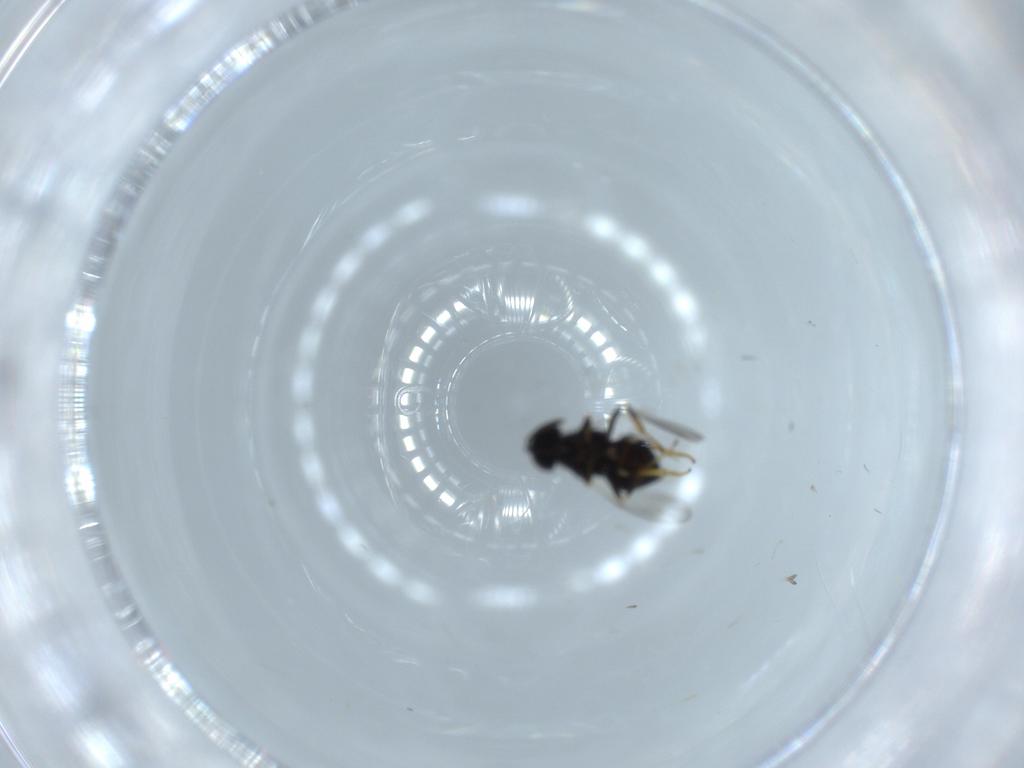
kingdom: Animalia
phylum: Arthropoda
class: Insecta
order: Hymenoptera
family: Encyrtidae
